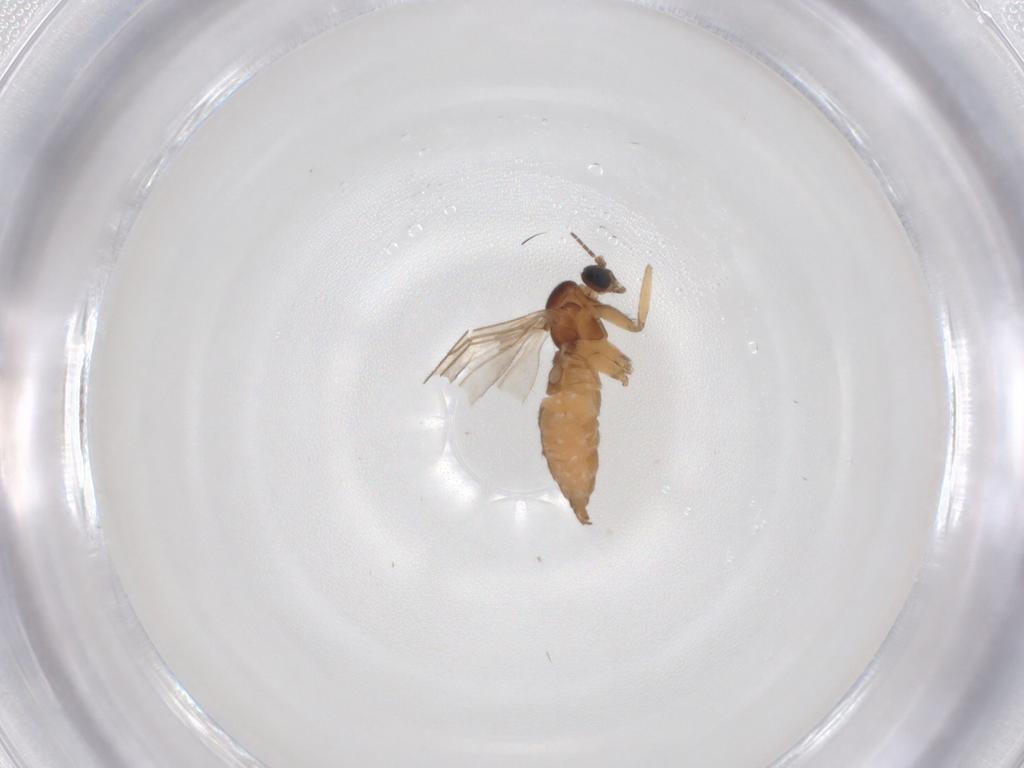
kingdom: Animalia
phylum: Arthropoda
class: Insecta
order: Diptera
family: Sciaridae
